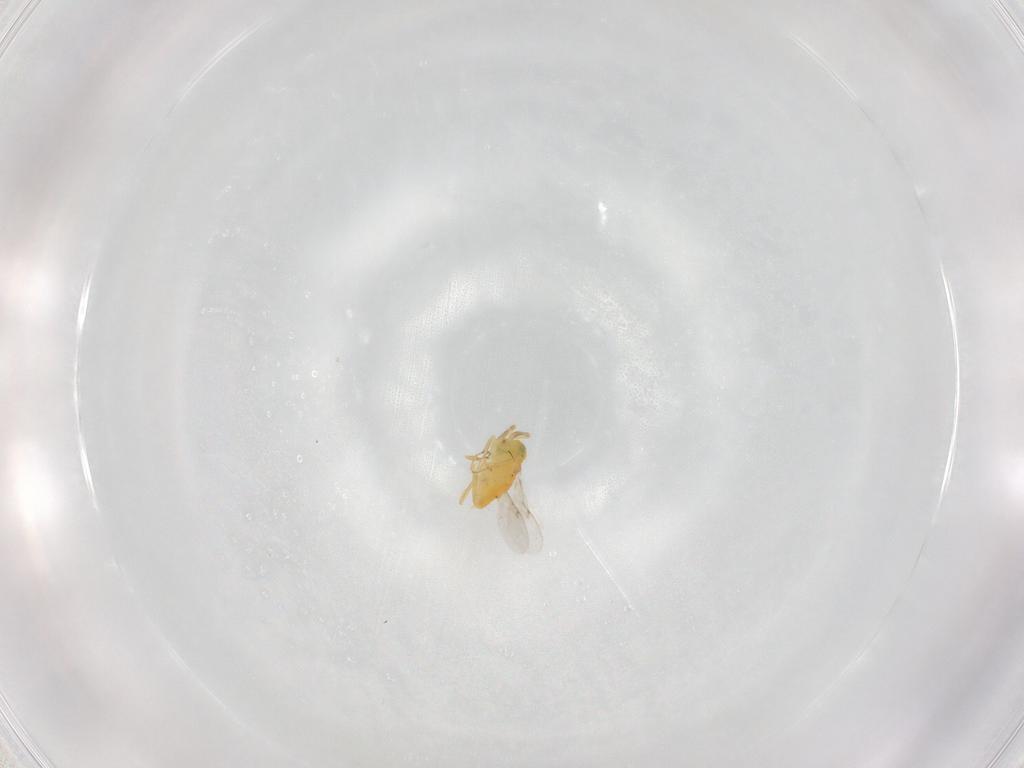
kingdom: Animalia
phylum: Arthropoda
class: Insecta
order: Hymenoptera
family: Encyrtidae
